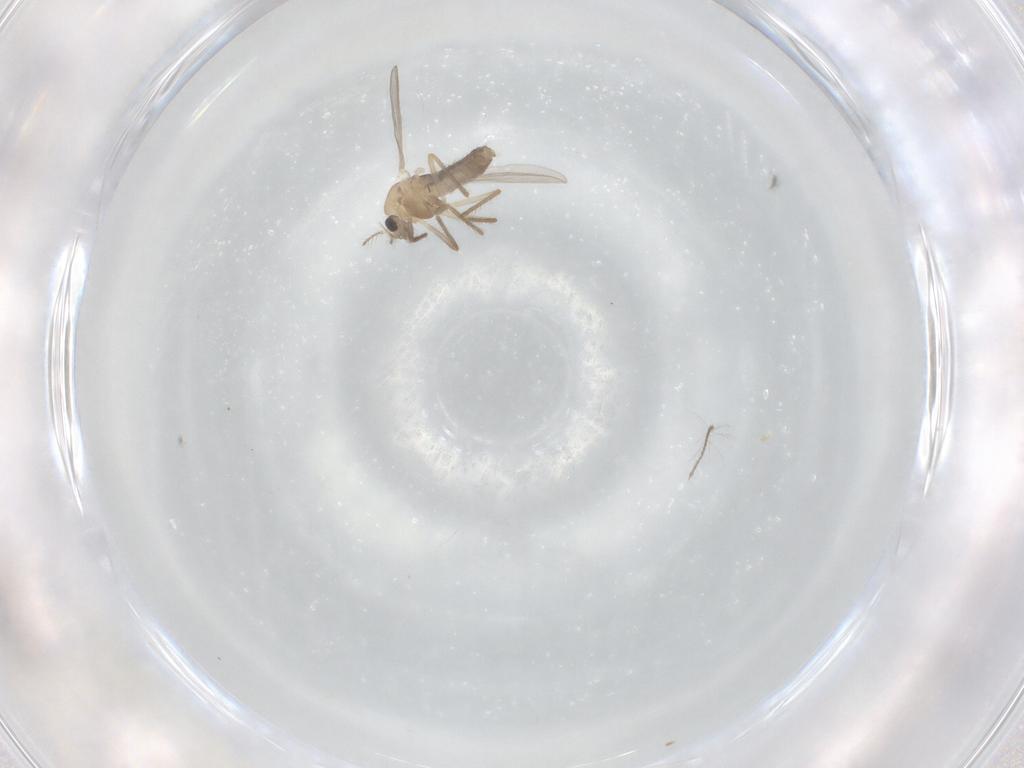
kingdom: Animalia
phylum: Arthropoda
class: Insecta
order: Diptera
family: Chironomidae
